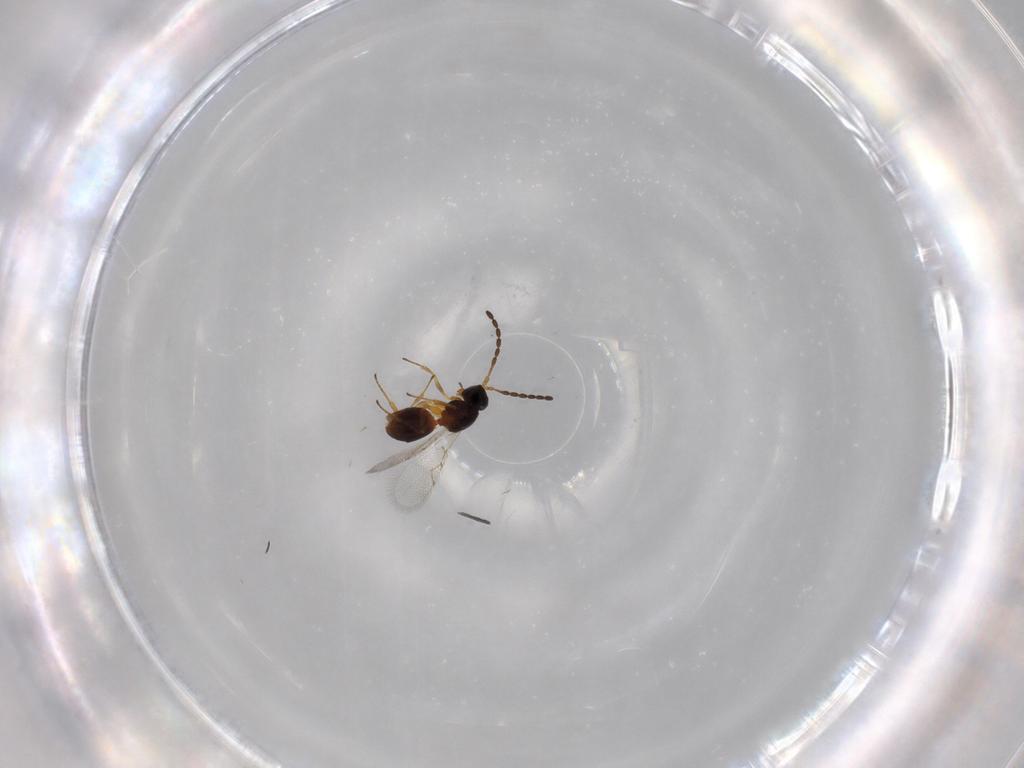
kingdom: Animalia
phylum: Arthropoda
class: Insecta
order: Hymenoptera
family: Figitidae
